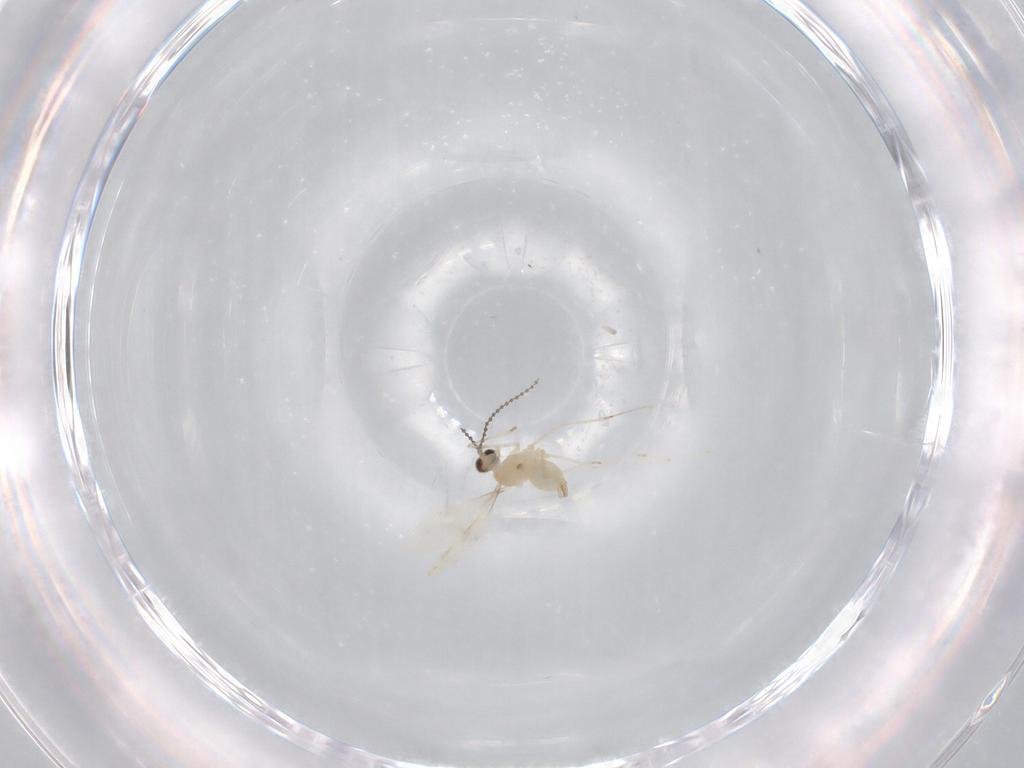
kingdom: Animalia
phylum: Arthropoda
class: Insecta
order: Diptera
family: Cecidomyiidae
